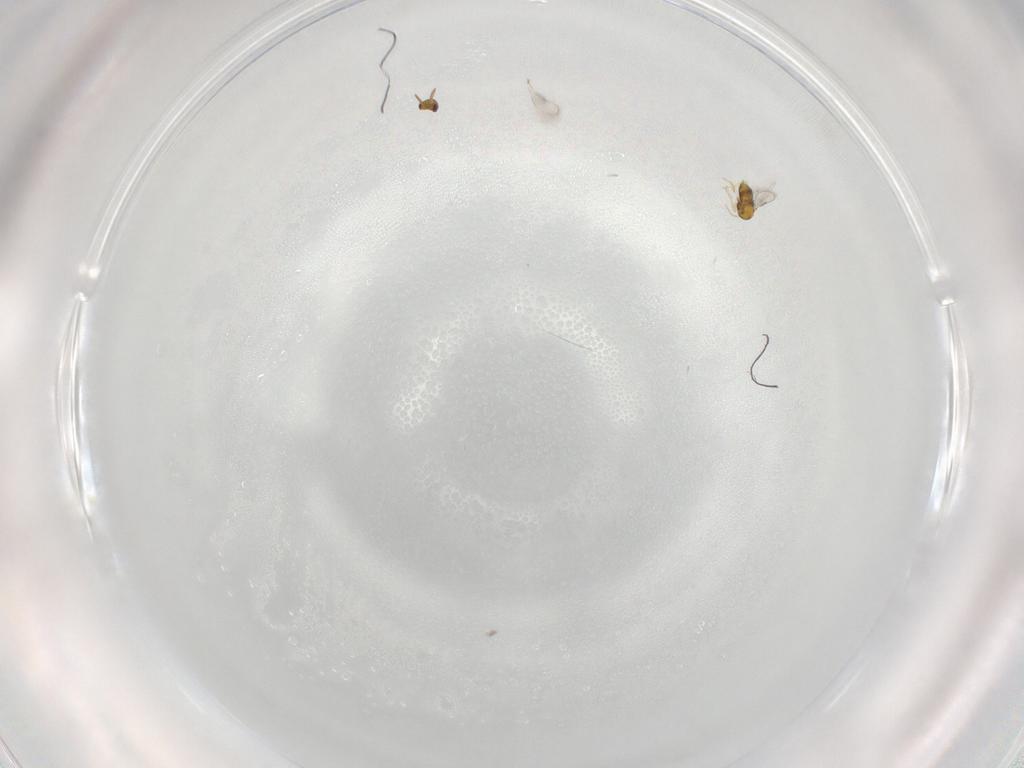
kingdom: Animalia
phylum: Arthropoda
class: Insecta
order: Hymenoptera
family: Aphelinidae
